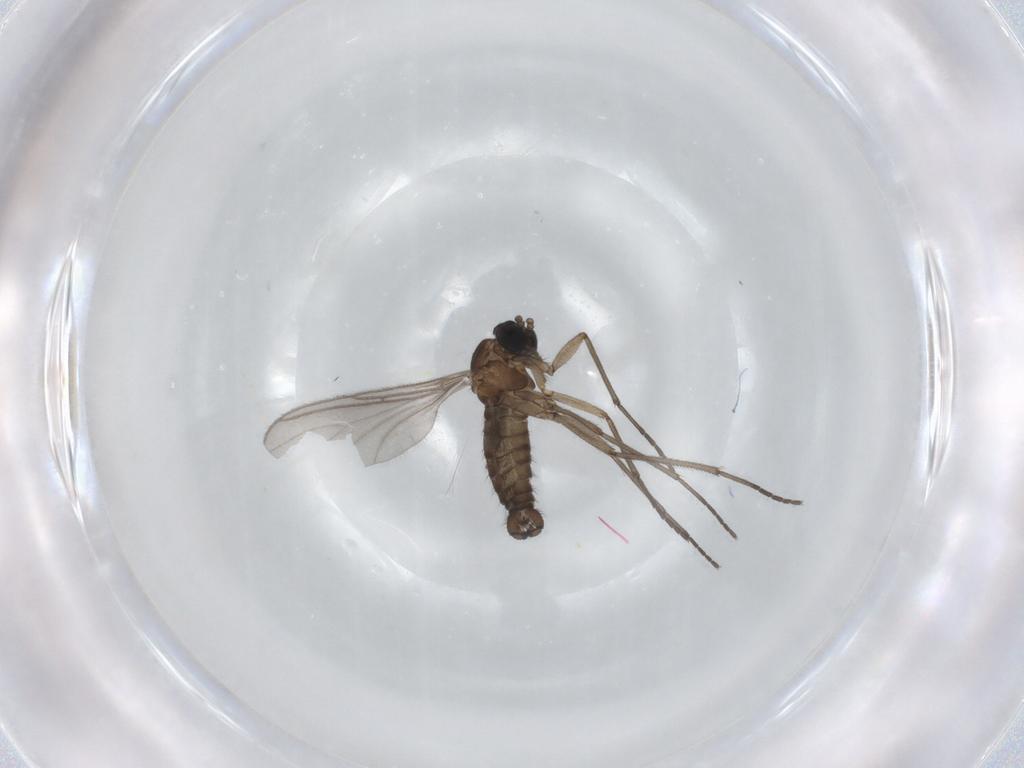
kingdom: Animalia
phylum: Arthropoda
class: Insecta
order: Diptera
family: Sciaridae
